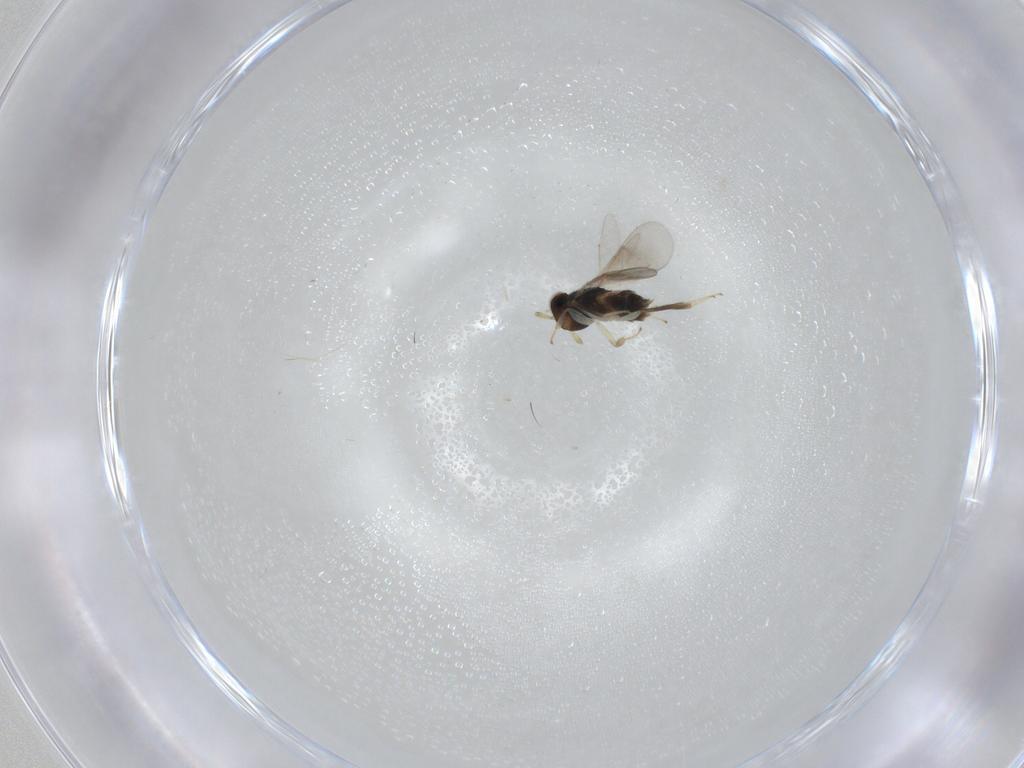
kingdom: Animalia
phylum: Arthropoda
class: Insecta
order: Hymenoptera
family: Aphelinidae
